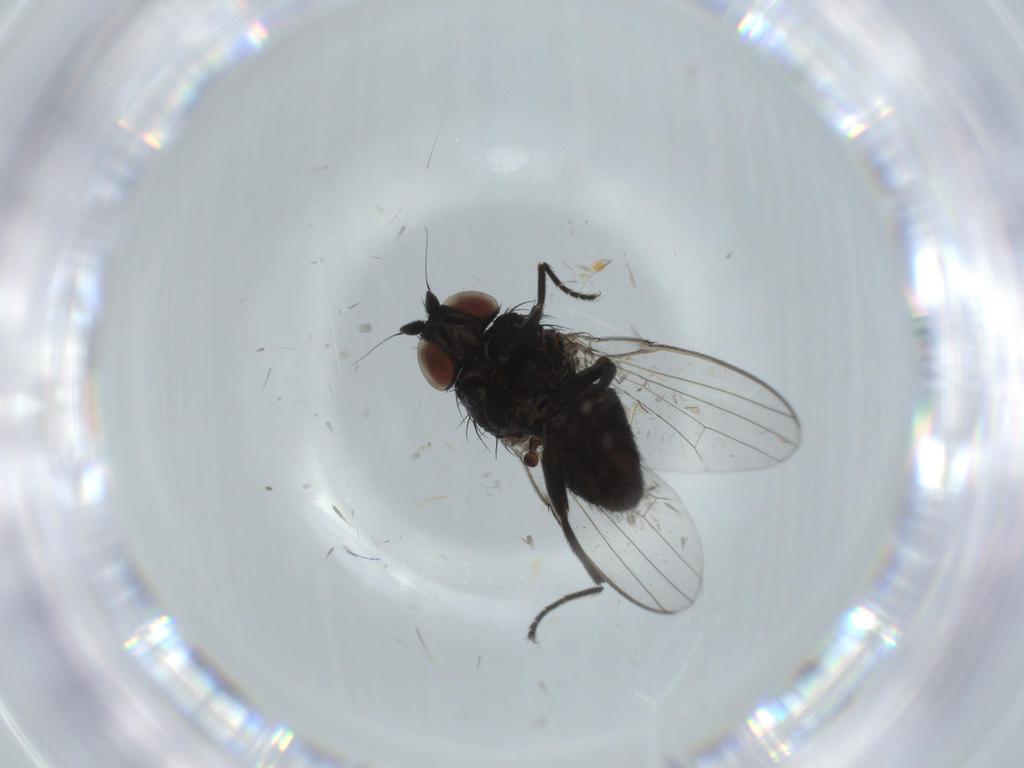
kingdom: Animalia
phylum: Arthropoda
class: Insecta
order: Diptera
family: Milichiidae
